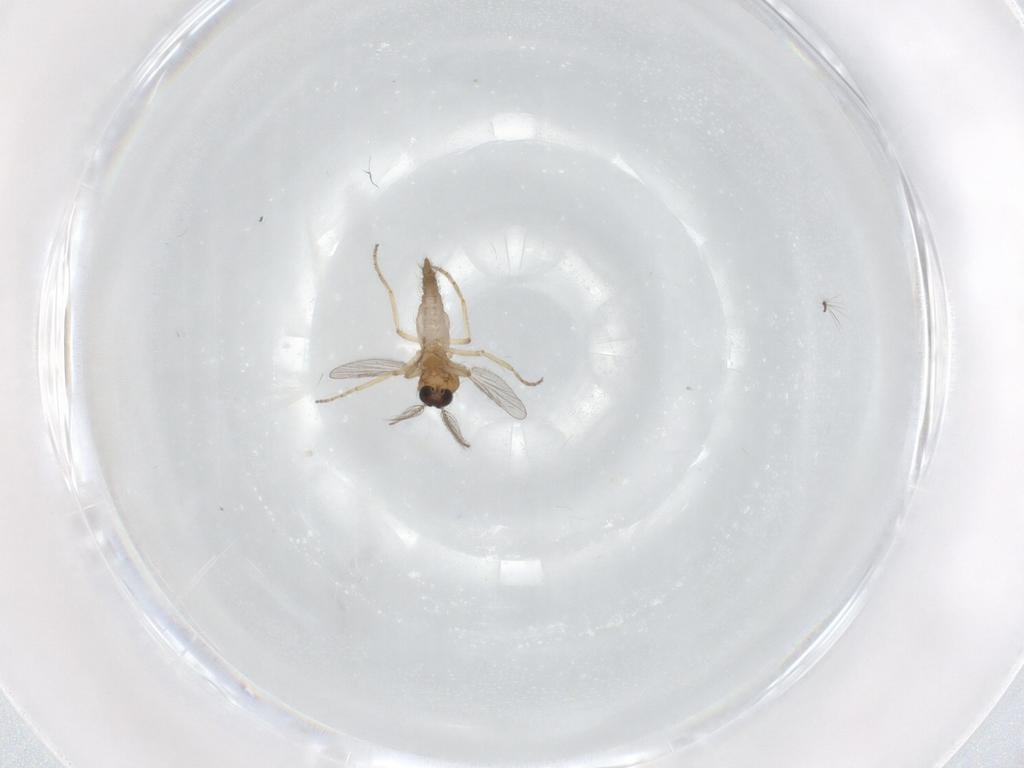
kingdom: Animalia
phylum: Arthropoda
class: Insecta
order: Diptera
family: Chironomidae
